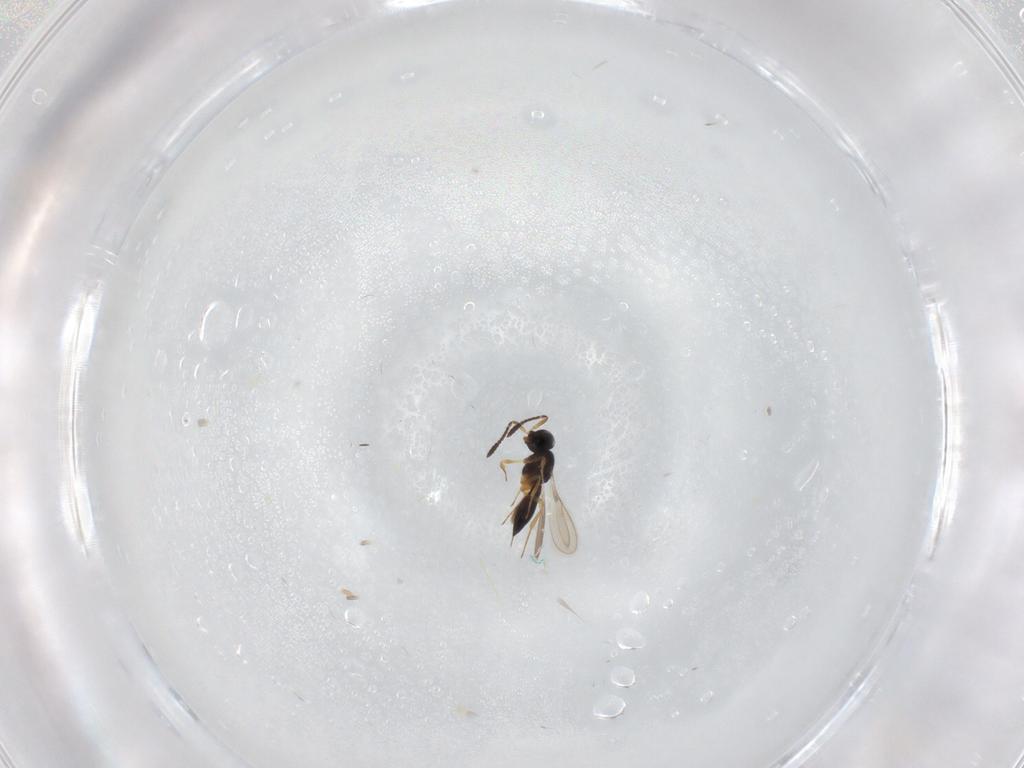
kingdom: Animalia
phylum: Arthropoda
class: Insecta
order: Hymenoptera
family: Scelionidae
